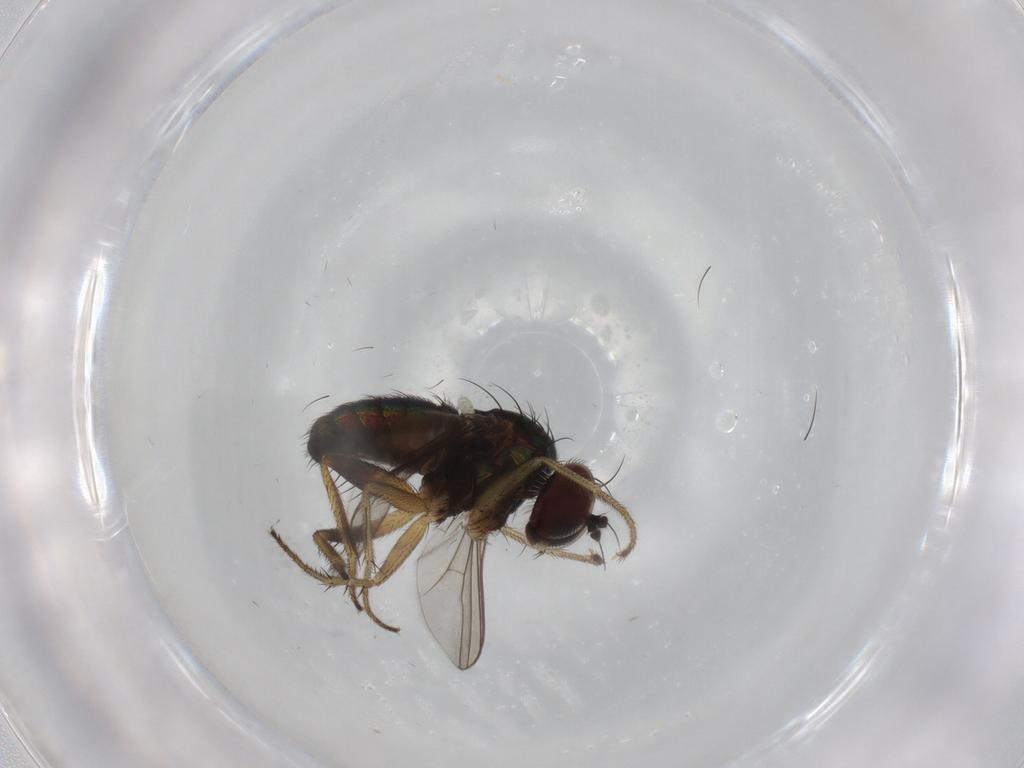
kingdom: Animalia
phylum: Arthropoda
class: Insecta
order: Diptera
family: Dolichopodidae
